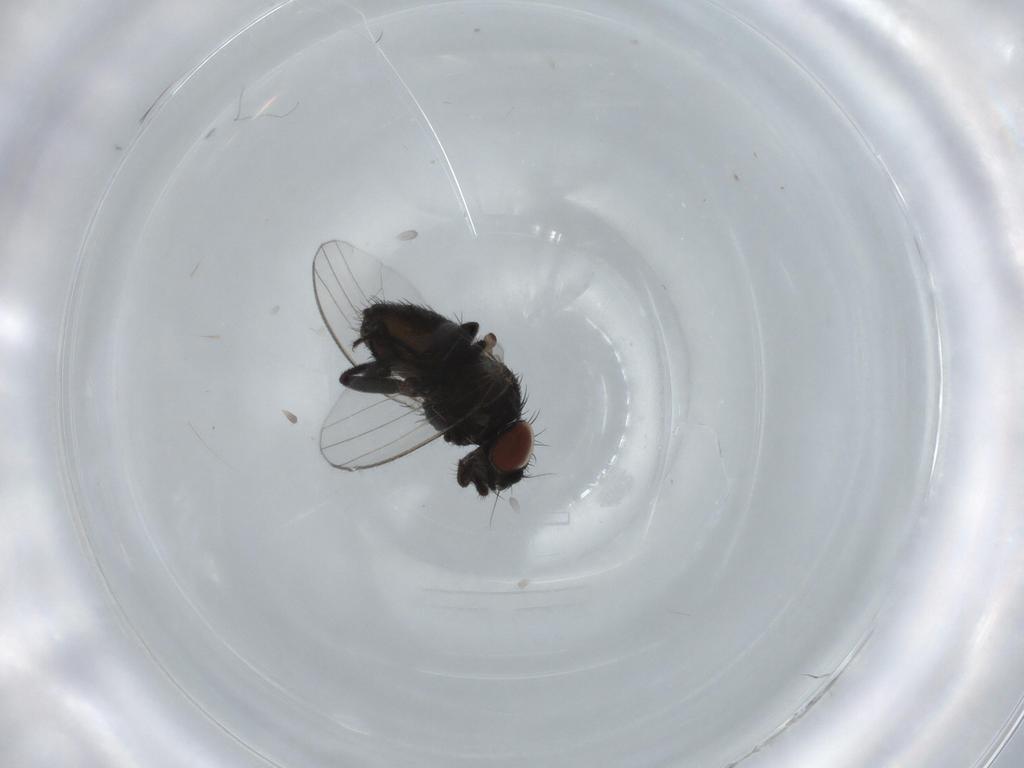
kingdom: Animalia
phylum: Arthropoda
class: Insecta
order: Diptera
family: Milichiidae
